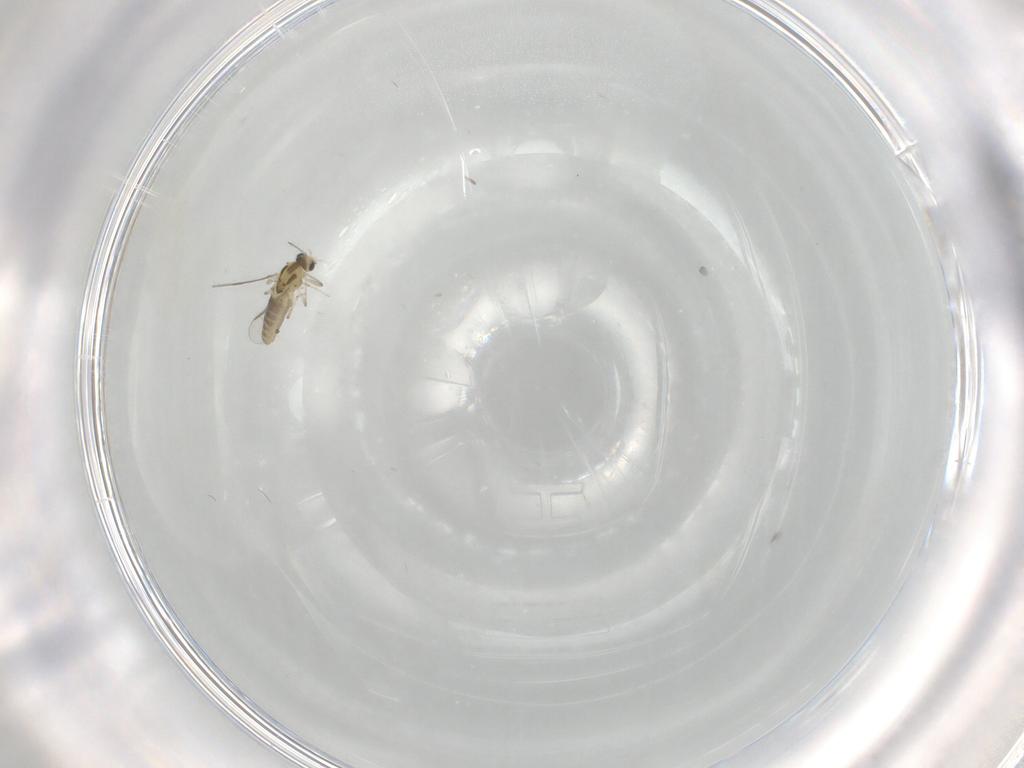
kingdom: Animalia
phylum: Arthropoda
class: Insecta
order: Diptera
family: Chironomidae
